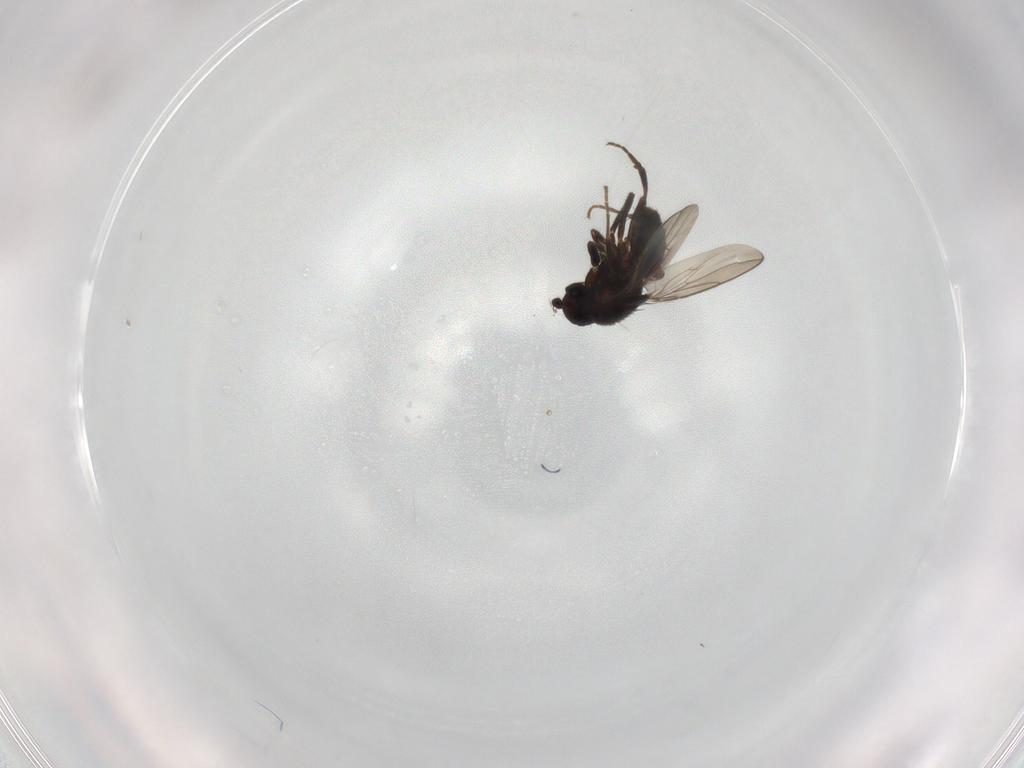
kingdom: Animalia
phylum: Arthropoda
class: Insecta
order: Diptera
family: Sphaeroceridae
